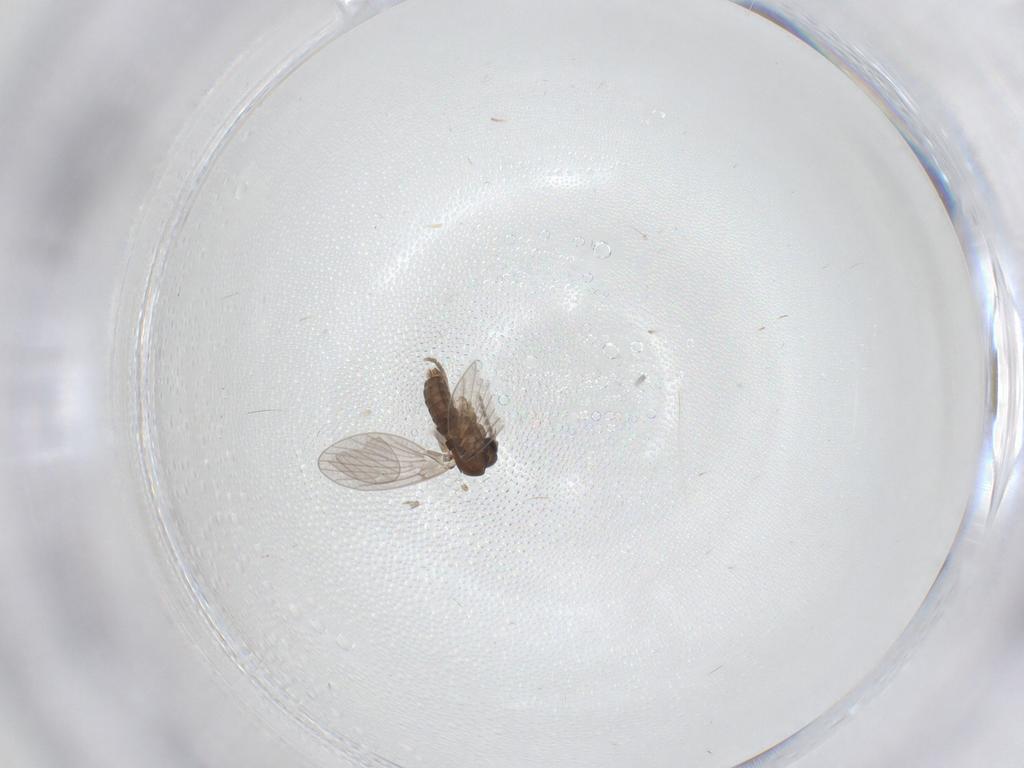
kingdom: Animalia
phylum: Arthropoda
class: Insecta
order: Diptera
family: Cecidomyiidae
